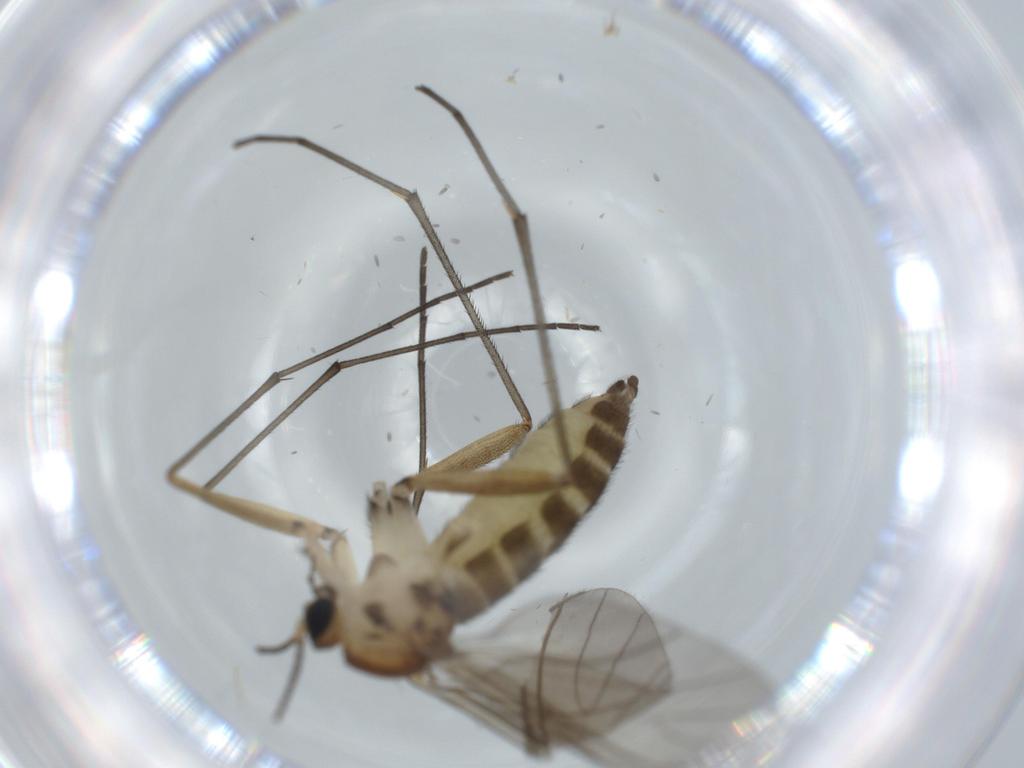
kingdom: Animalia
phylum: Arthropoda
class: Insecta
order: Diptera
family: Sciaridae
